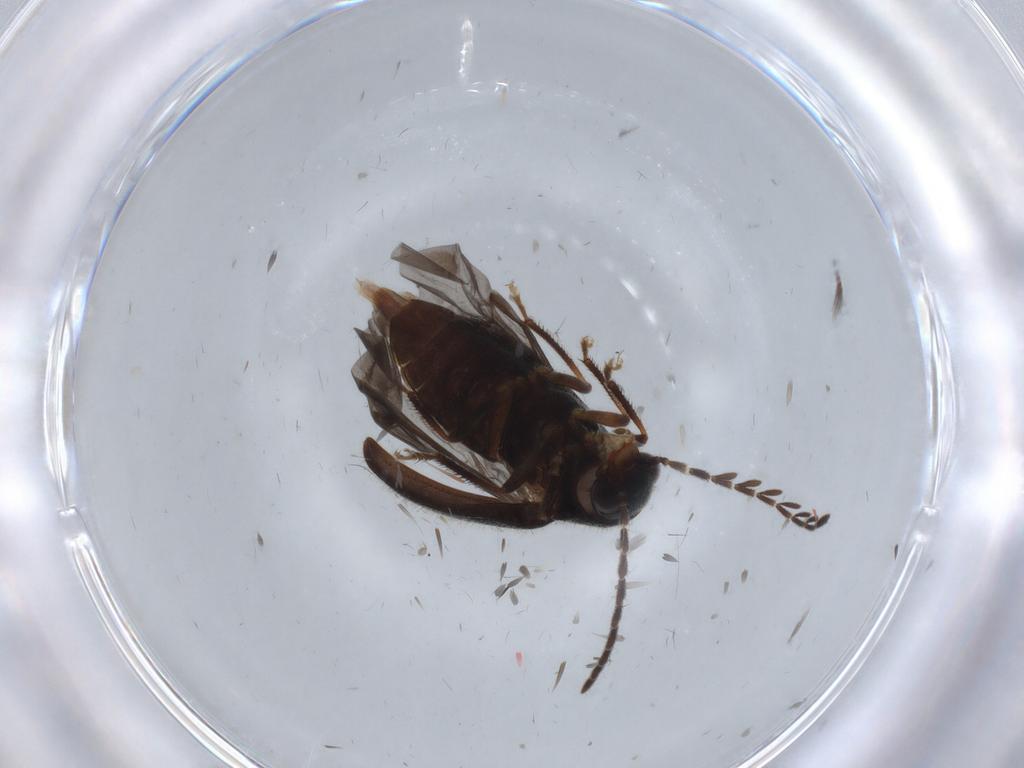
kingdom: Animalia
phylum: Arthropoda
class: Insecta
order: Coleoptera
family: Ptilodactylidae
